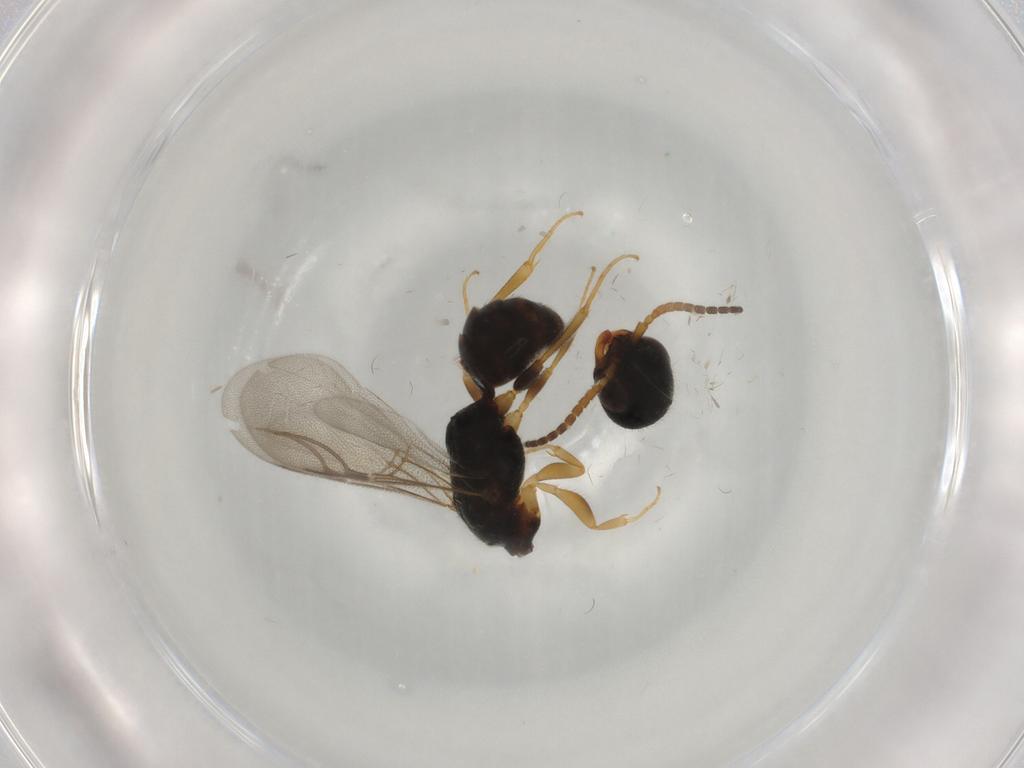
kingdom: Animalia
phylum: Arthropoda
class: Insecta
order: Hymenoptera
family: Bethylidae
